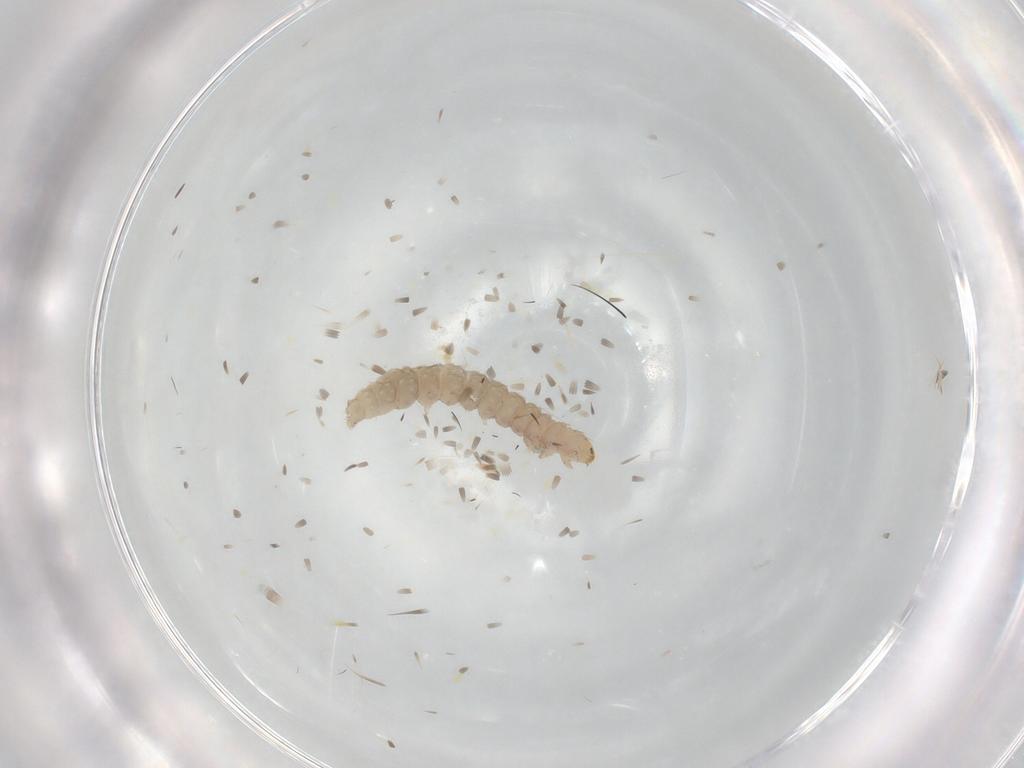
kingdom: Animalia
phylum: Arthropoda
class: Insecta
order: Lepidoptera
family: Bucculatricidae
